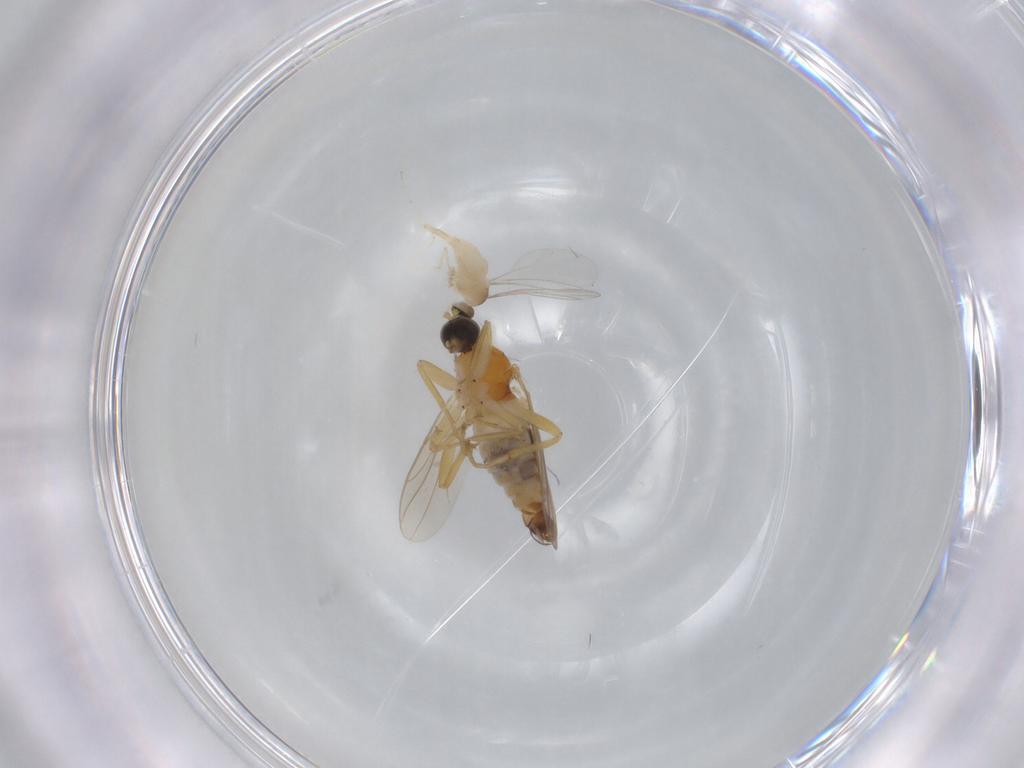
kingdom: Animalia
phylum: Arthropoda
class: Insecta
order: Diptera
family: Cecidomyiidae
